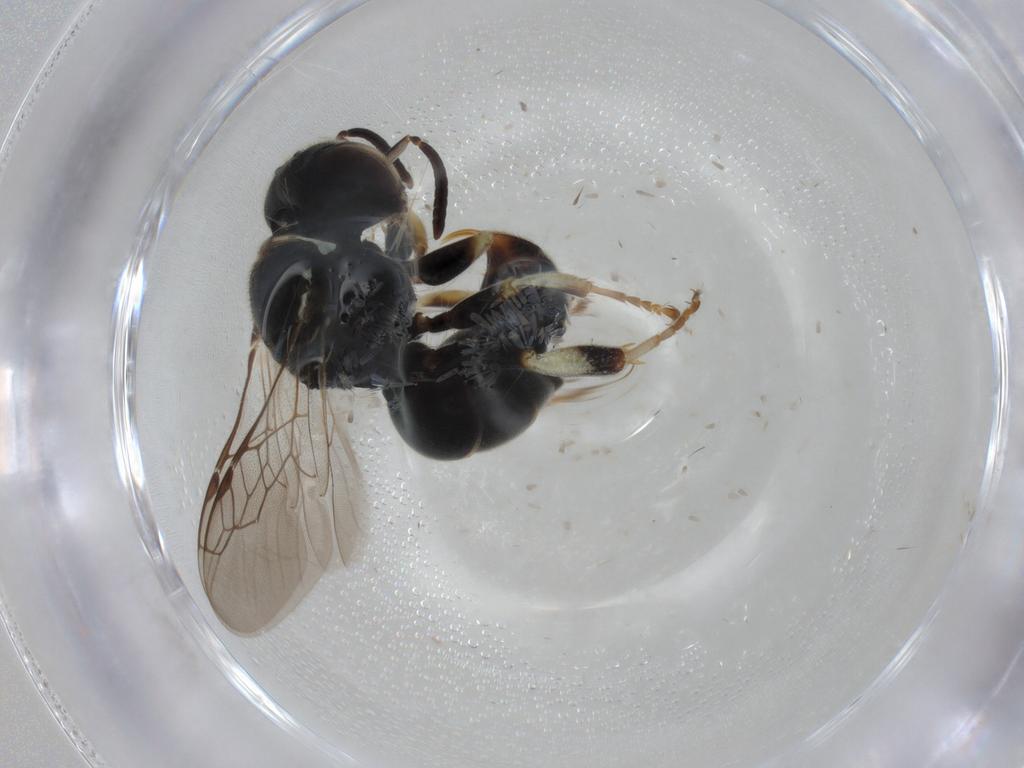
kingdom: Animalia
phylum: Arthropoda
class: Insecta
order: Hymenoptera
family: Crabronidae
